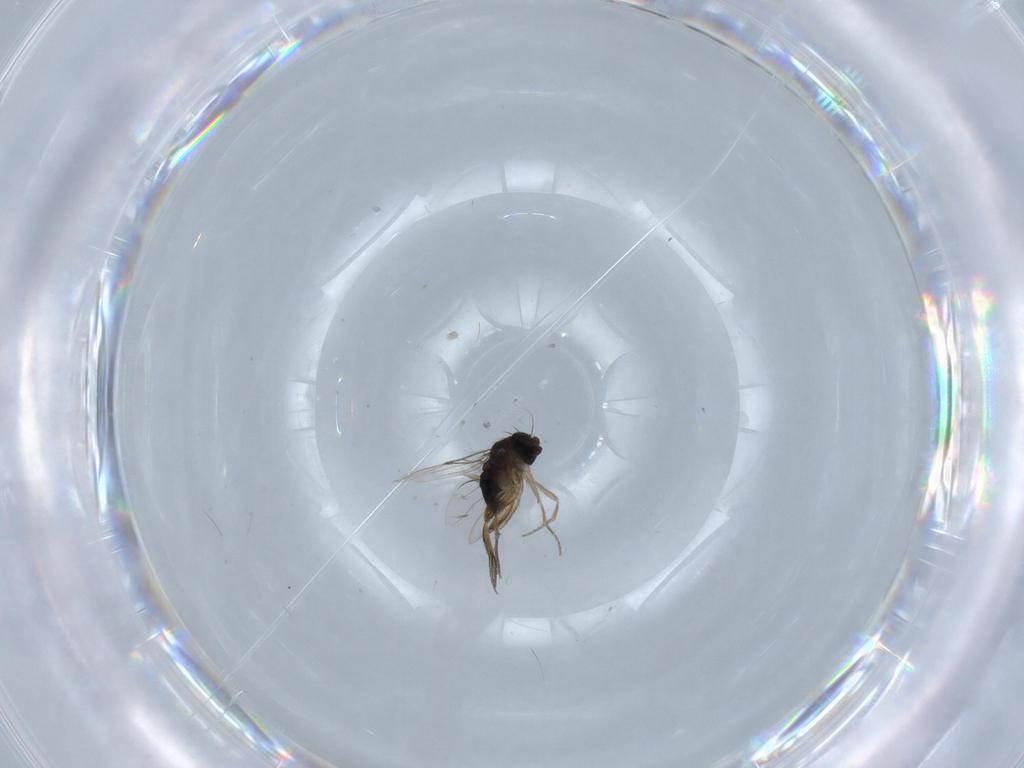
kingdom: Animalia
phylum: Arthropoda
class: Insecta
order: Diptera
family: Phoridae
